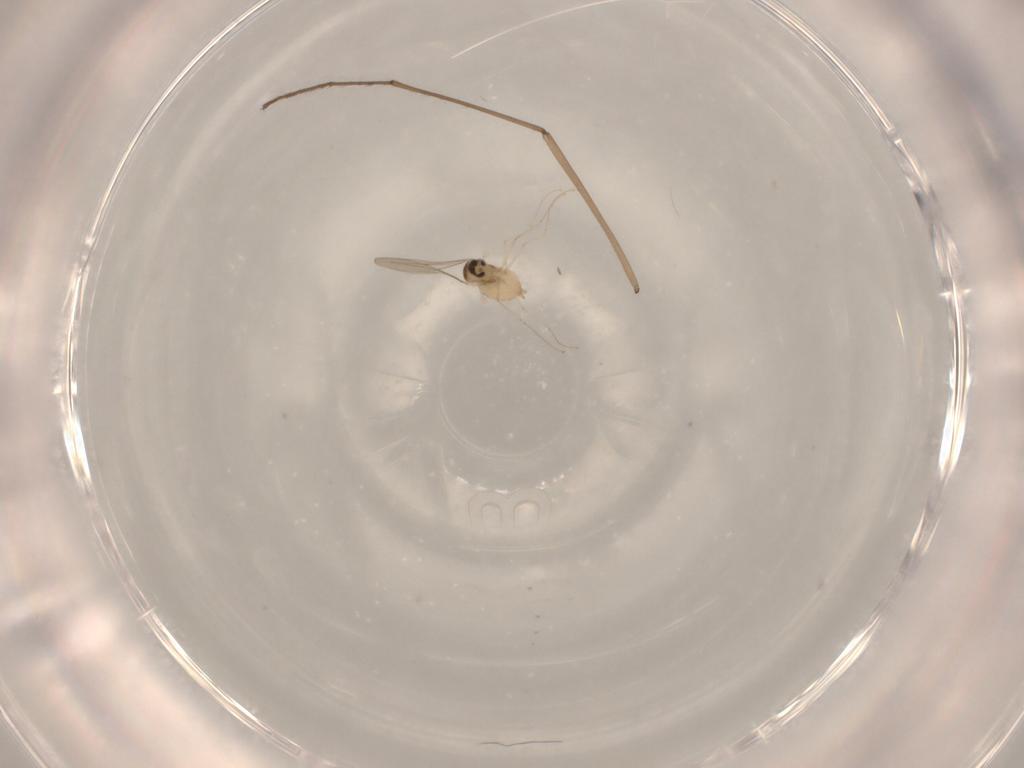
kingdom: Animalia
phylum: Arthropoda
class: Insecta
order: Diptera
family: Cecidomyiidae
